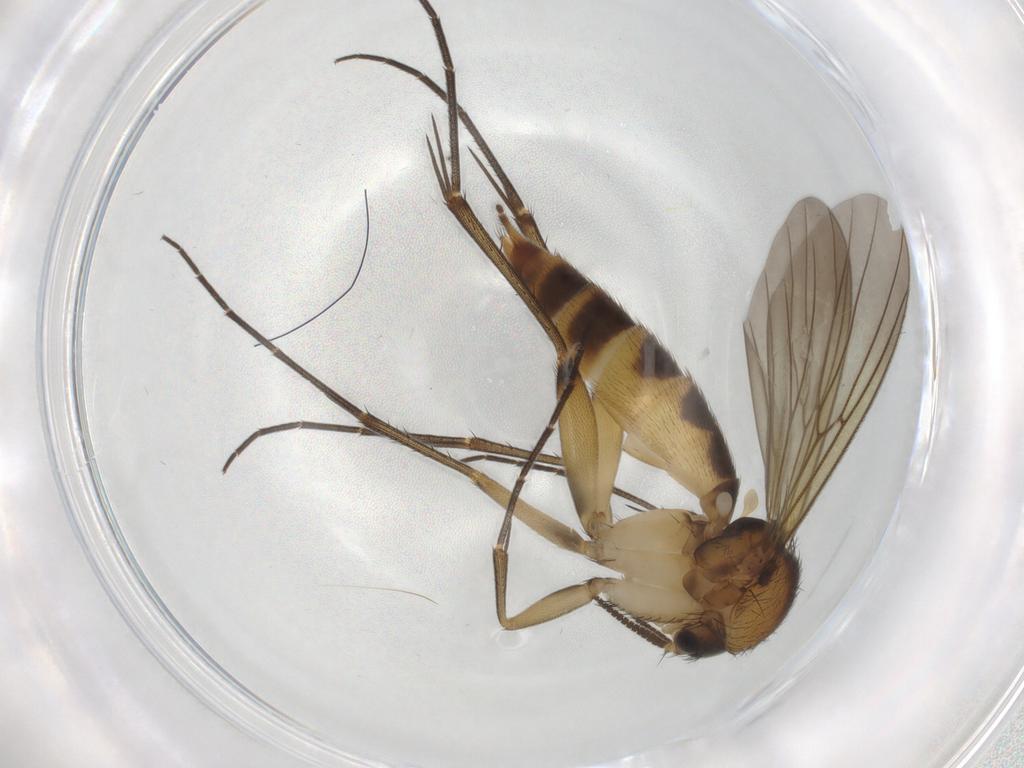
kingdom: Animalia
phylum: Arthropoda
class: Insecta
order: Diptera
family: Mycetophilidae
